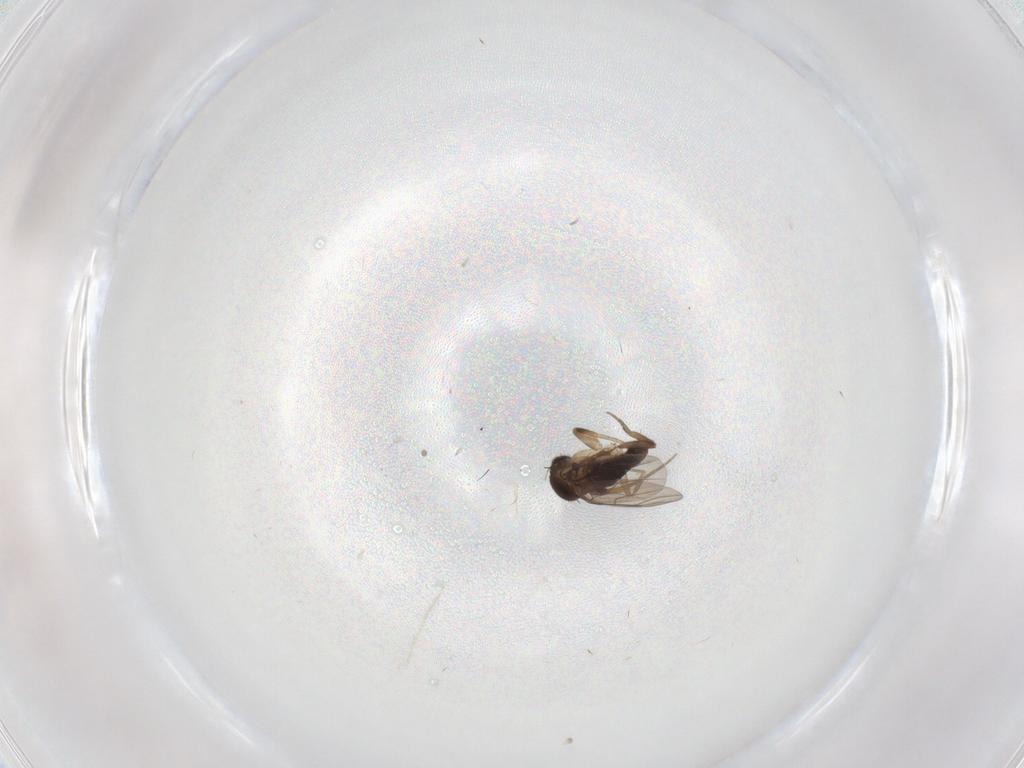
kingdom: Animalia
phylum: Arthropoda
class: Insecta
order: Diptera
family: Phoridae
